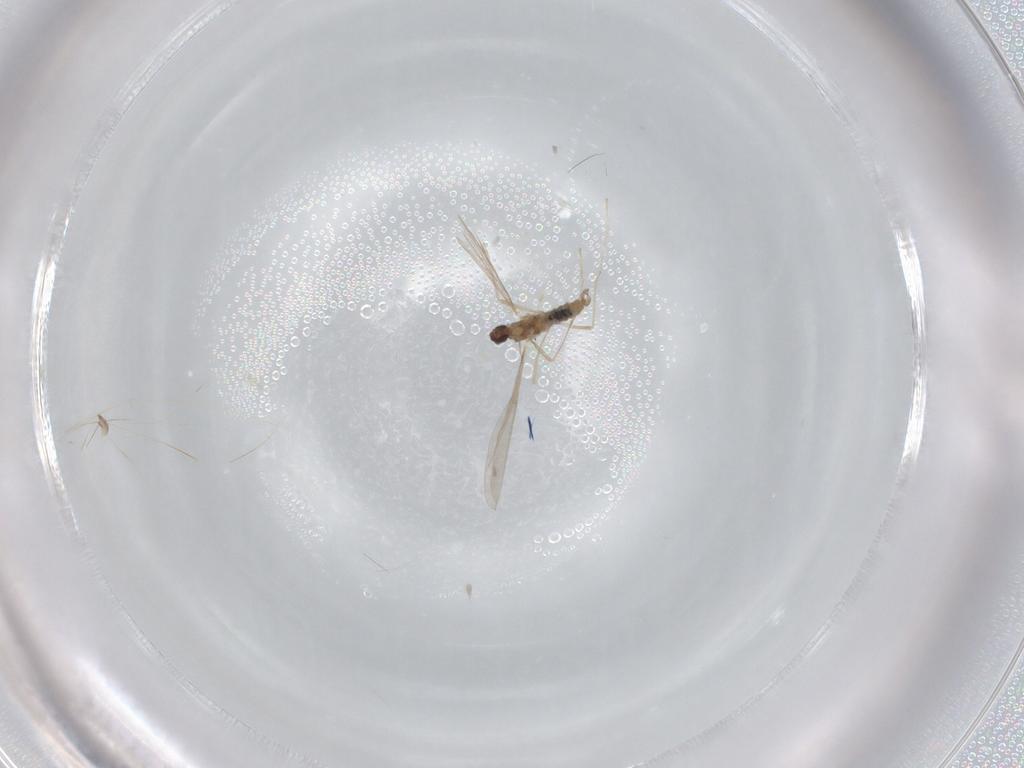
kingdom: Animalia
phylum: Arthropoda
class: Insecta
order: Diptera
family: Cecidomyiidae
